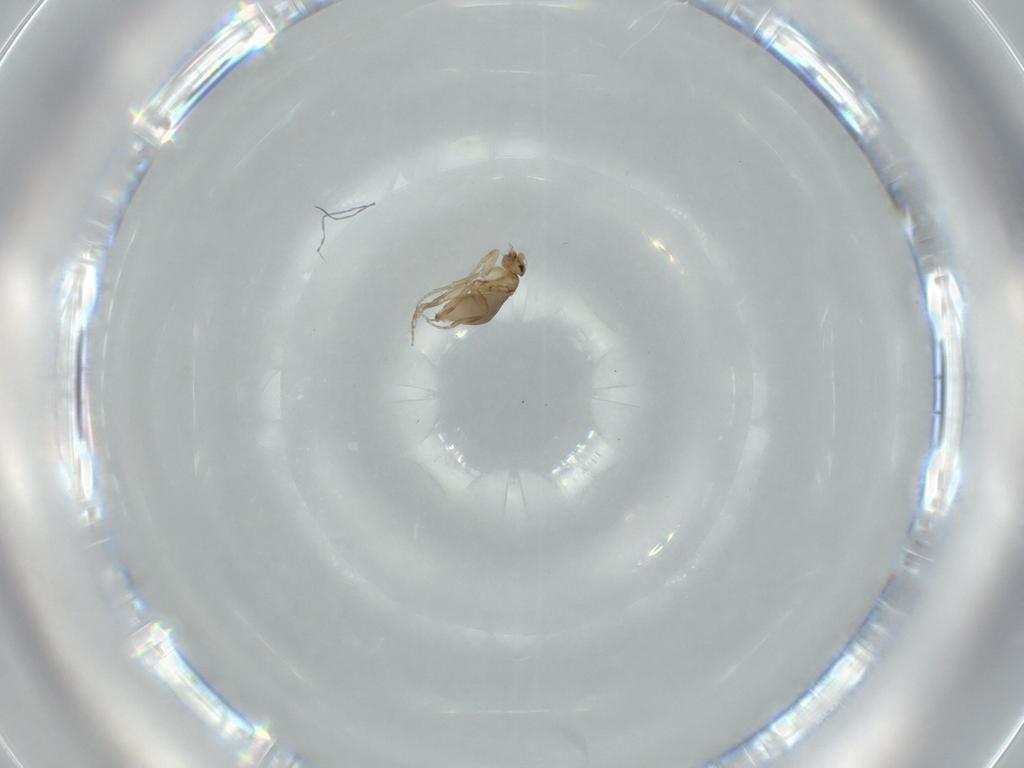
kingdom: Animalia
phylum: Arthropoda
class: Insecta
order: Diptera
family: Phoridae
